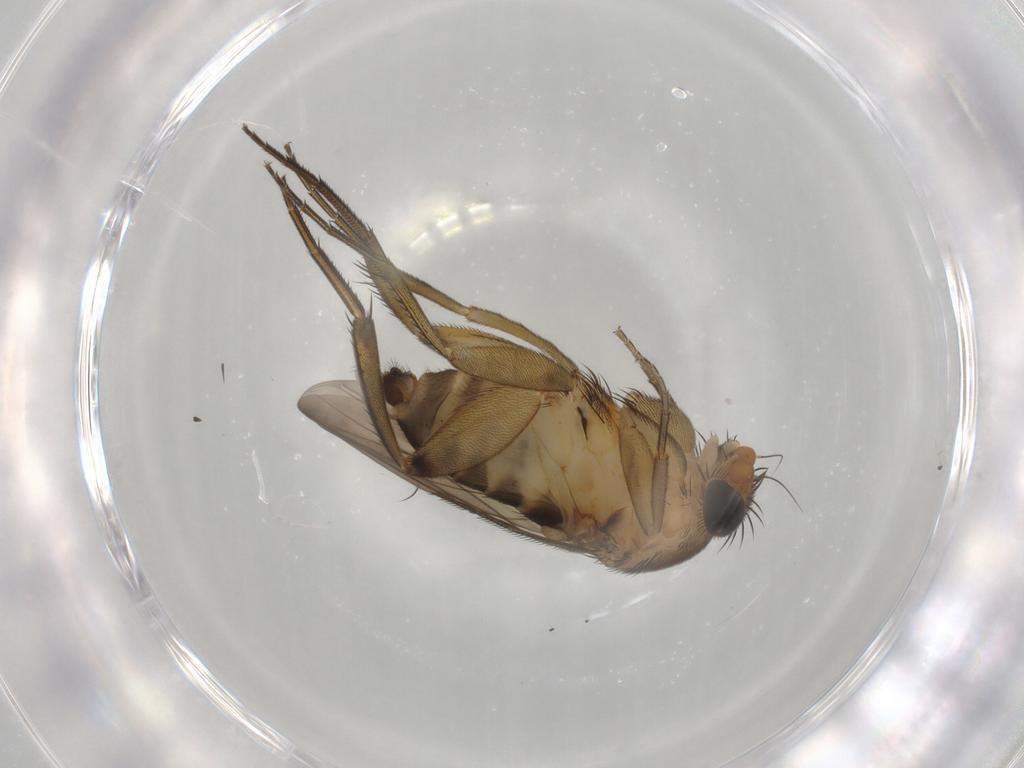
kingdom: Animalia
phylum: Arthropoda
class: Insecta
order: Diptera
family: Phoridae
